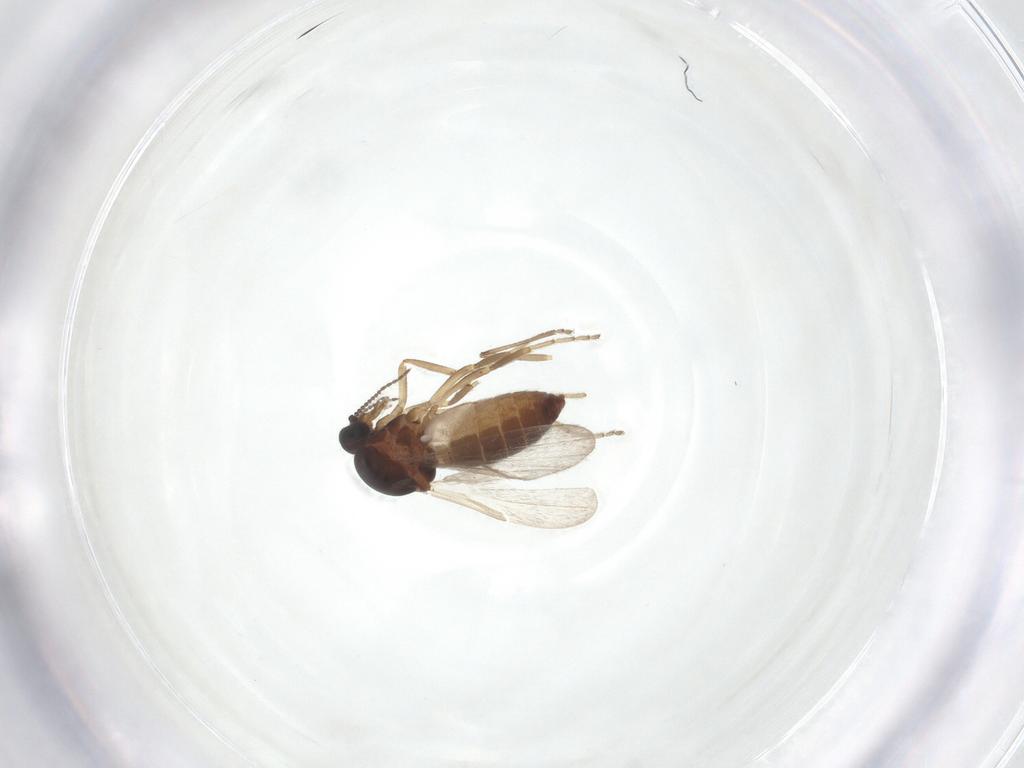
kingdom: Animalia
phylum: Arthropoda
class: Insecta
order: Diptera
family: Ceratopogonidae
